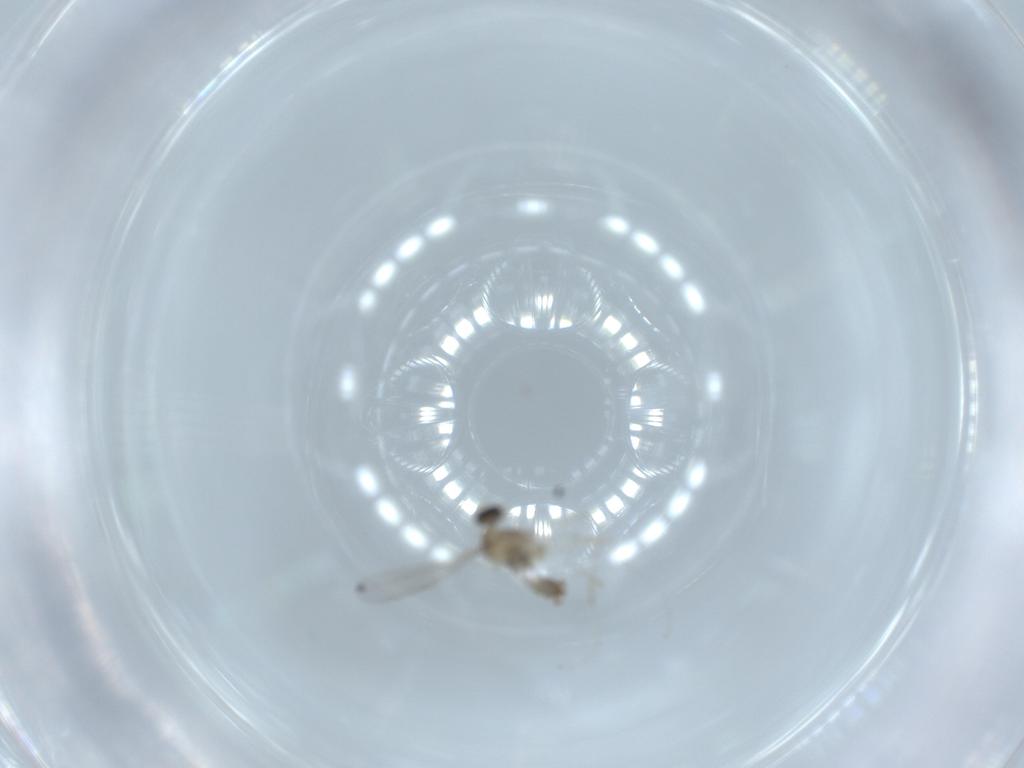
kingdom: Animalia
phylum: Arthropoda
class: Insecta
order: Diptera
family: Cecidomyiidae
